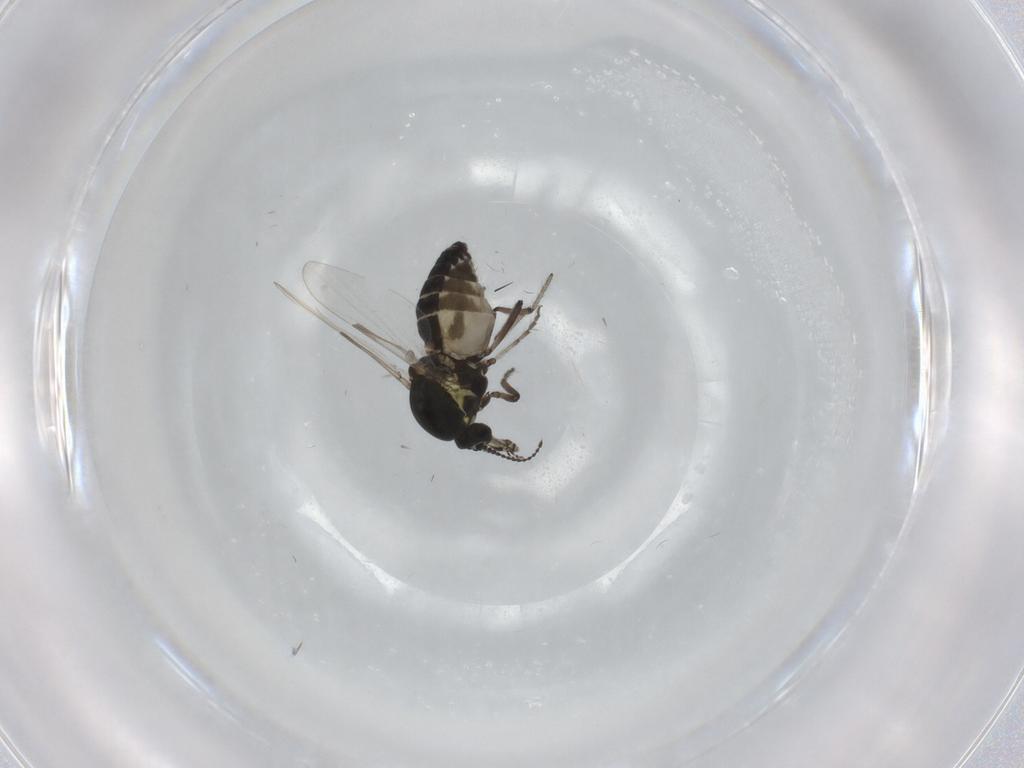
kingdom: Animalia
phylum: Arthropoda
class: Insecta
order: Diptera
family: Ceratopogonidae
